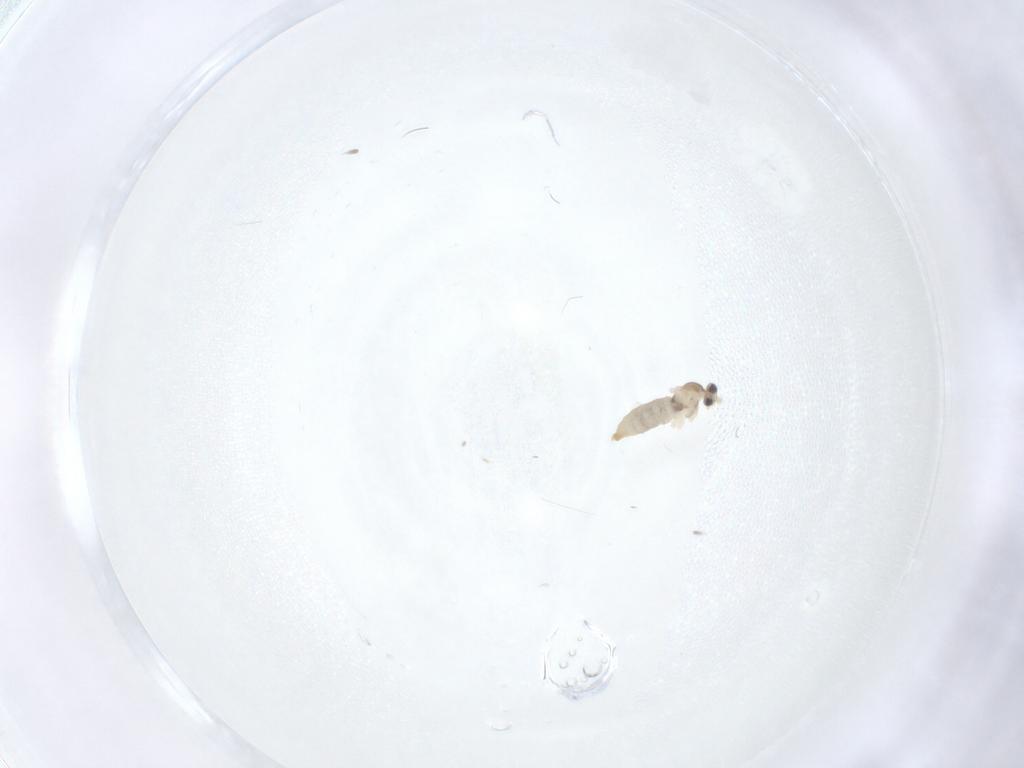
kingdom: Animalia
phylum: Arthropoda
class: Insecta
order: Diptera
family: Cecidomyiidae
